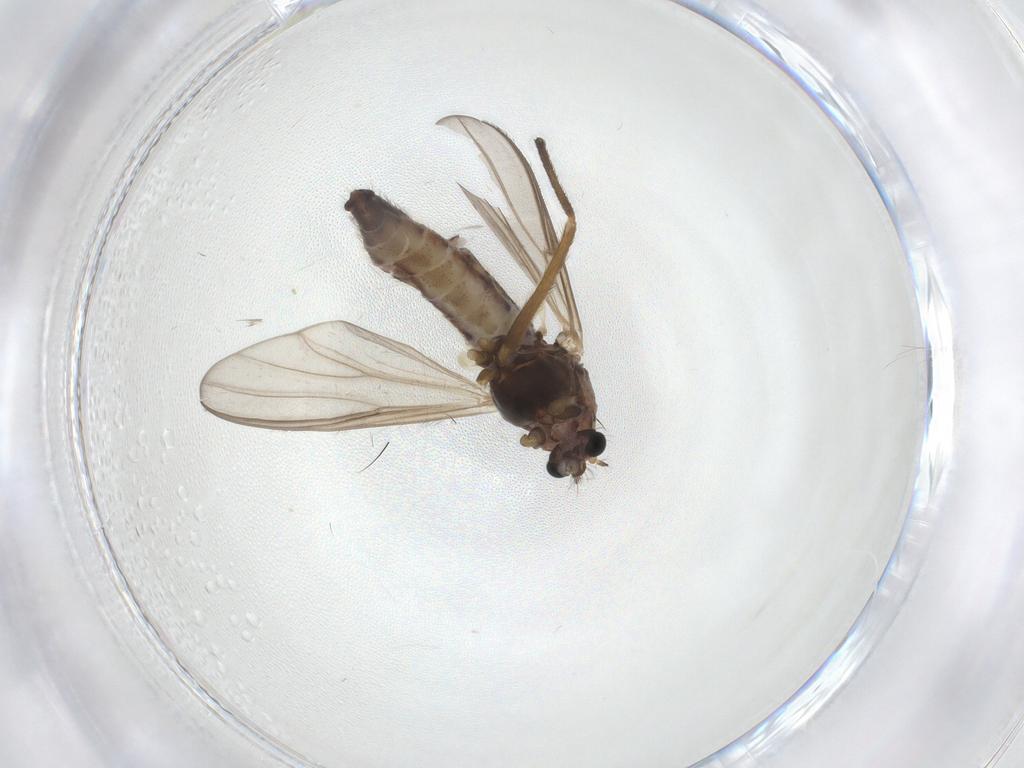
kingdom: Animalia
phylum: Arthropoda
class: Insecta
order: Diptera
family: Chironomidae
